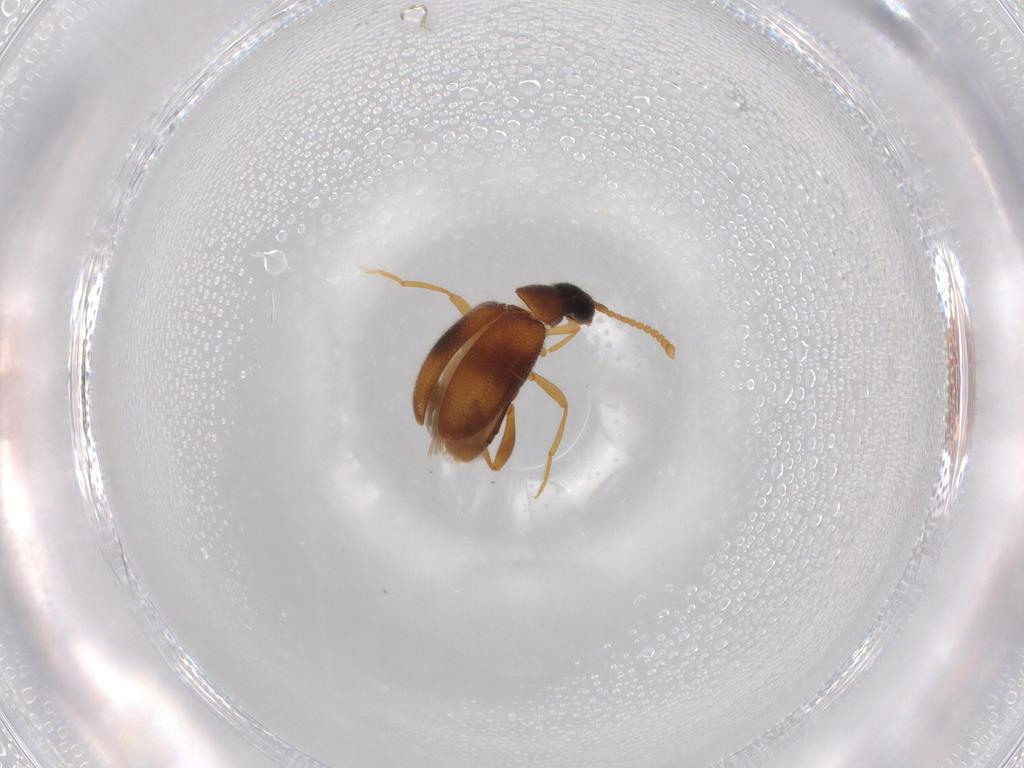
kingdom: Animalia
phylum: Arthropoda
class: Insecta
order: Coleoptera
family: Aderidae
